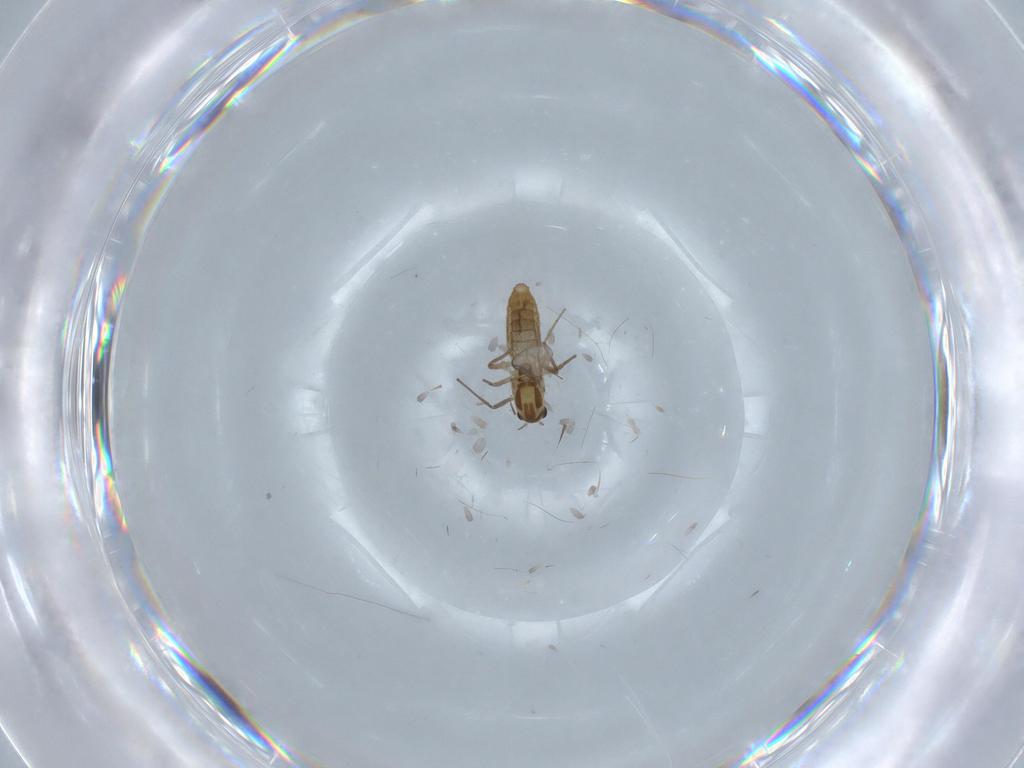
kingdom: Animalia
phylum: Arthropoda
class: Insecta
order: Diptera
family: Chironomidae
